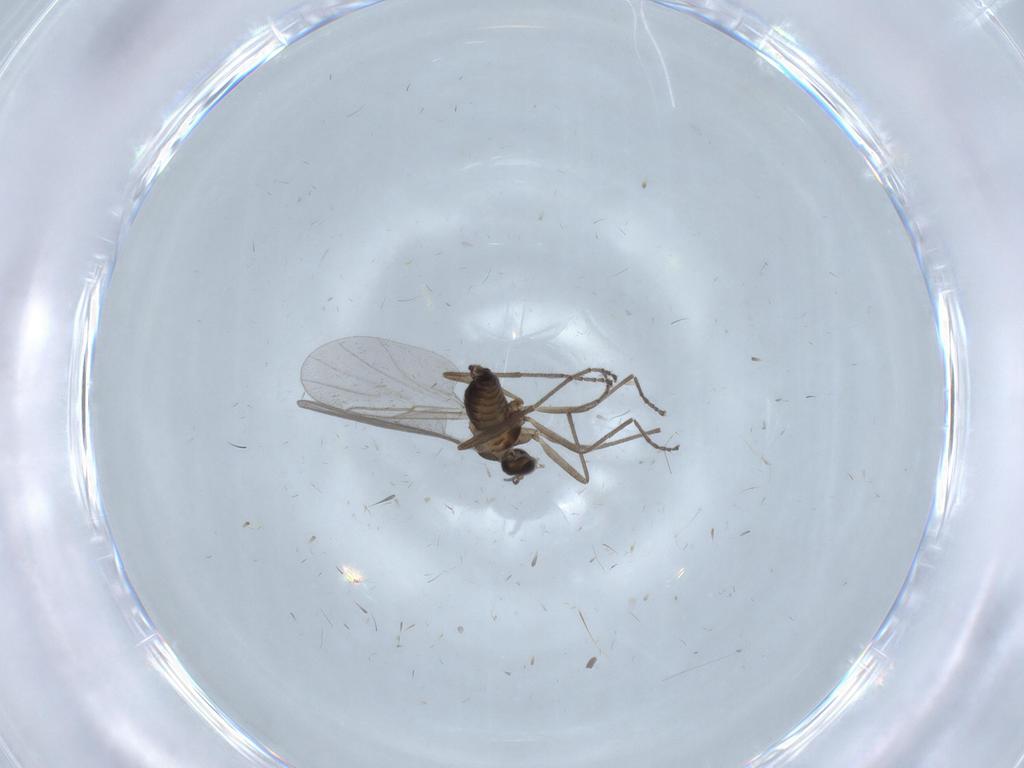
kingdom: Animalia
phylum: Arthropoda
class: Insecta
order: Diptera
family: Cecidomyiidae
